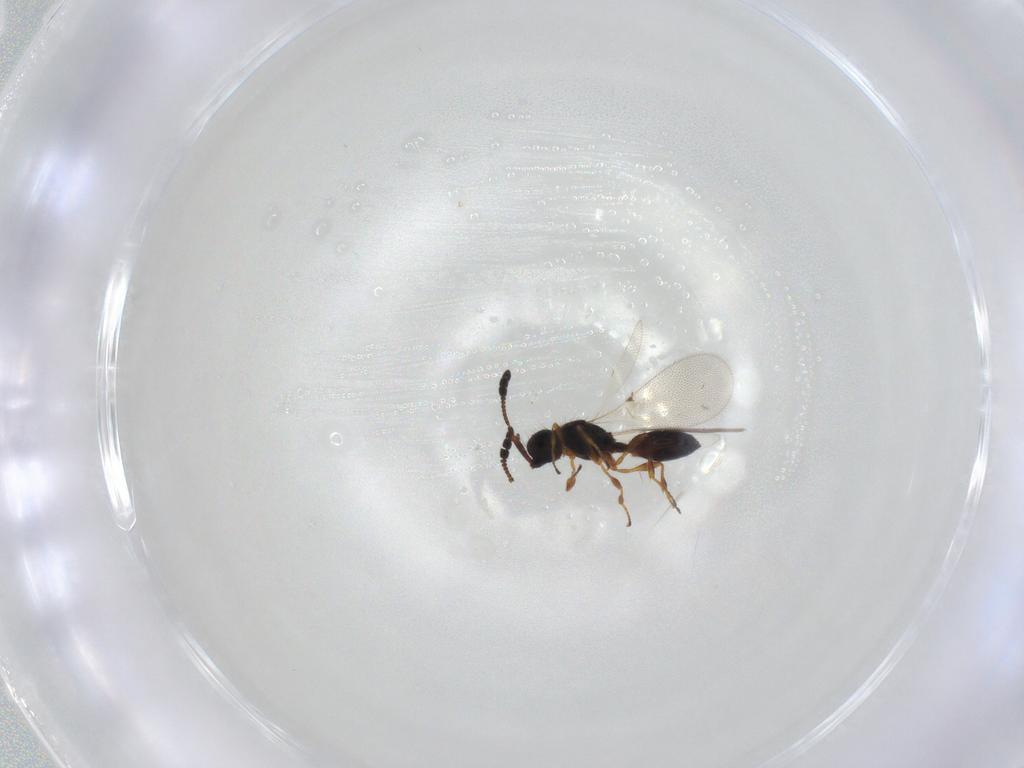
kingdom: Animalia
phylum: Arthropoda
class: Insecta
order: Hymenoptera
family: Diapriidae
